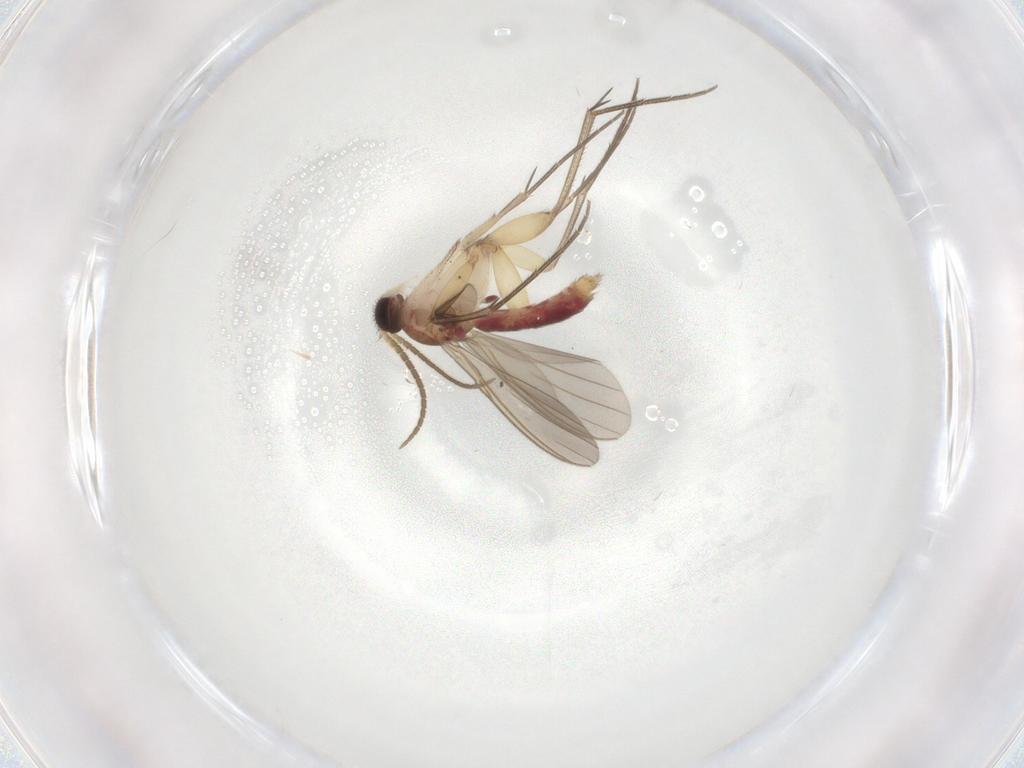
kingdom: Animalia
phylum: Arthropoda
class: Insecta
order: Diptera
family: Mycetophilidae
